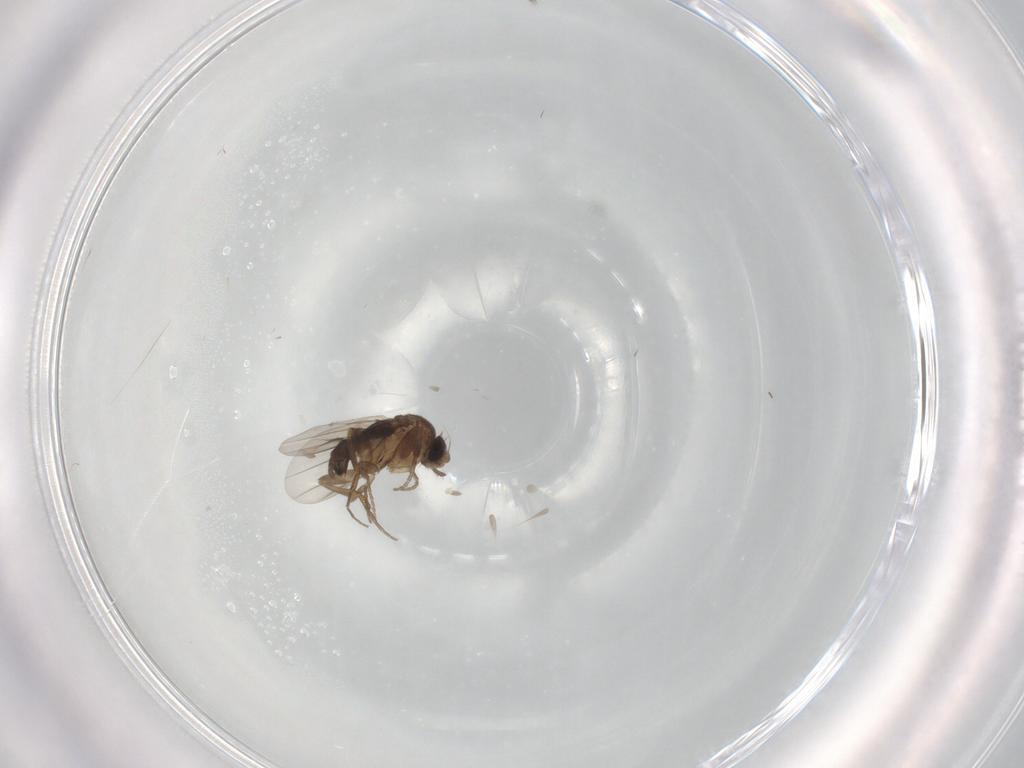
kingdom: Animalia
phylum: Arthropoda
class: Insecta
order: Diptera
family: Phoridae
